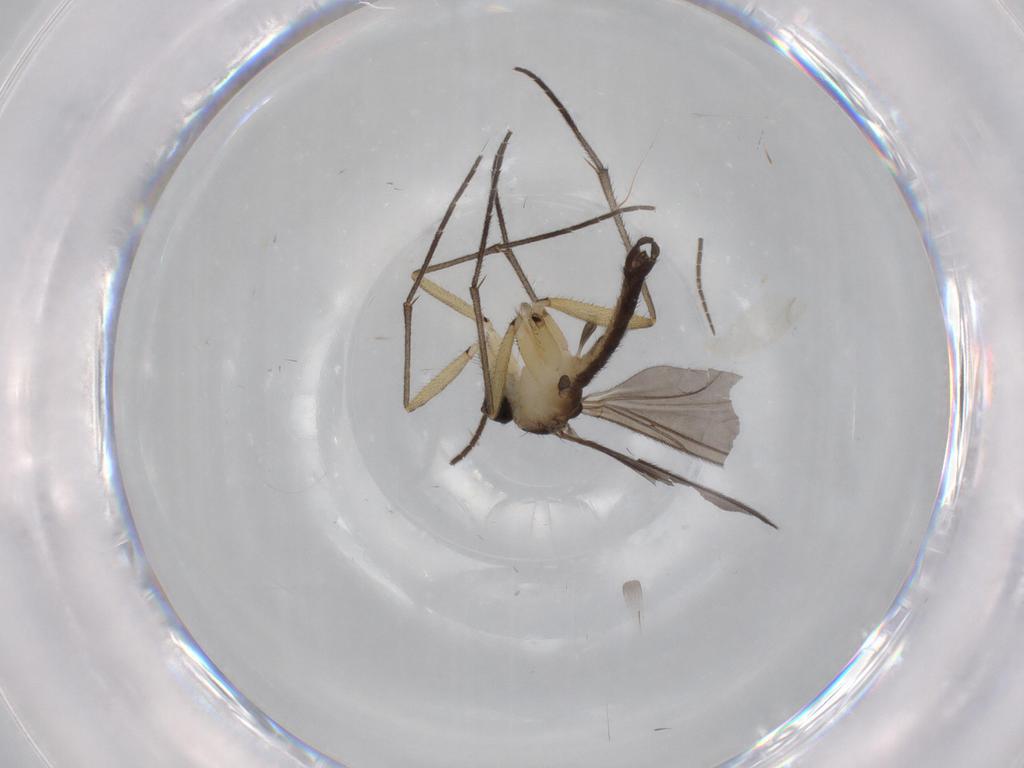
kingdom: Animalia
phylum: Arthropoda
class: Insecta
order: Diptera
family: Sciaridae
